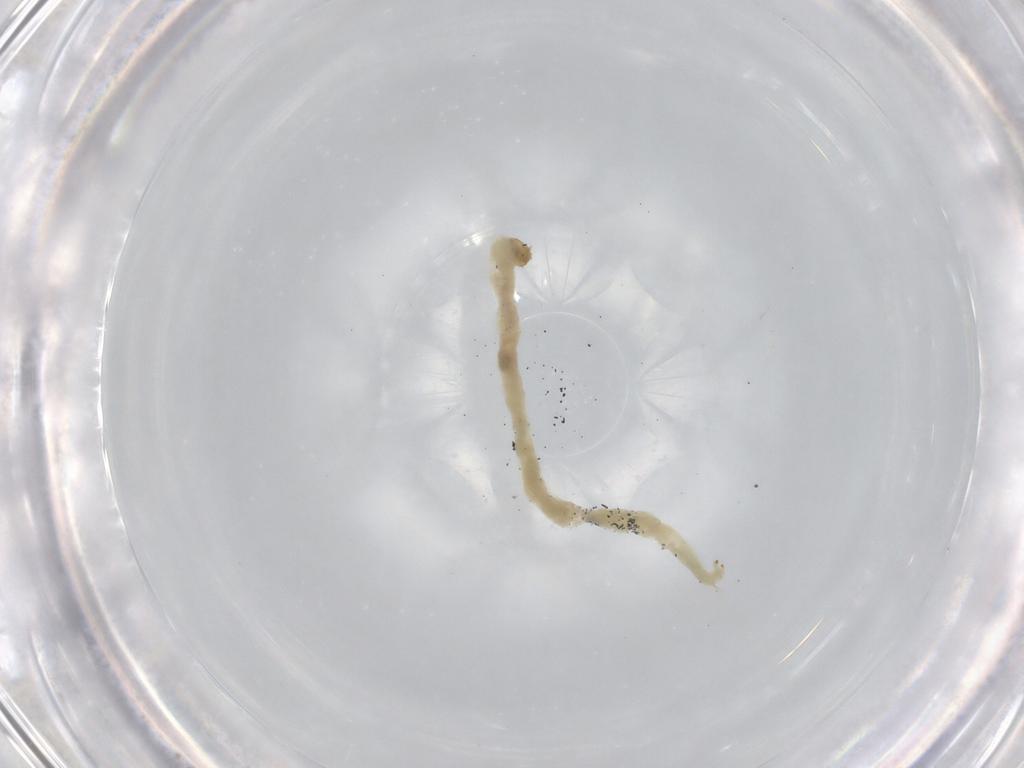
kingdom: Animalia
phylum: Arthropoda
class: Insecta
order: Diptera
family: Chironomidae
